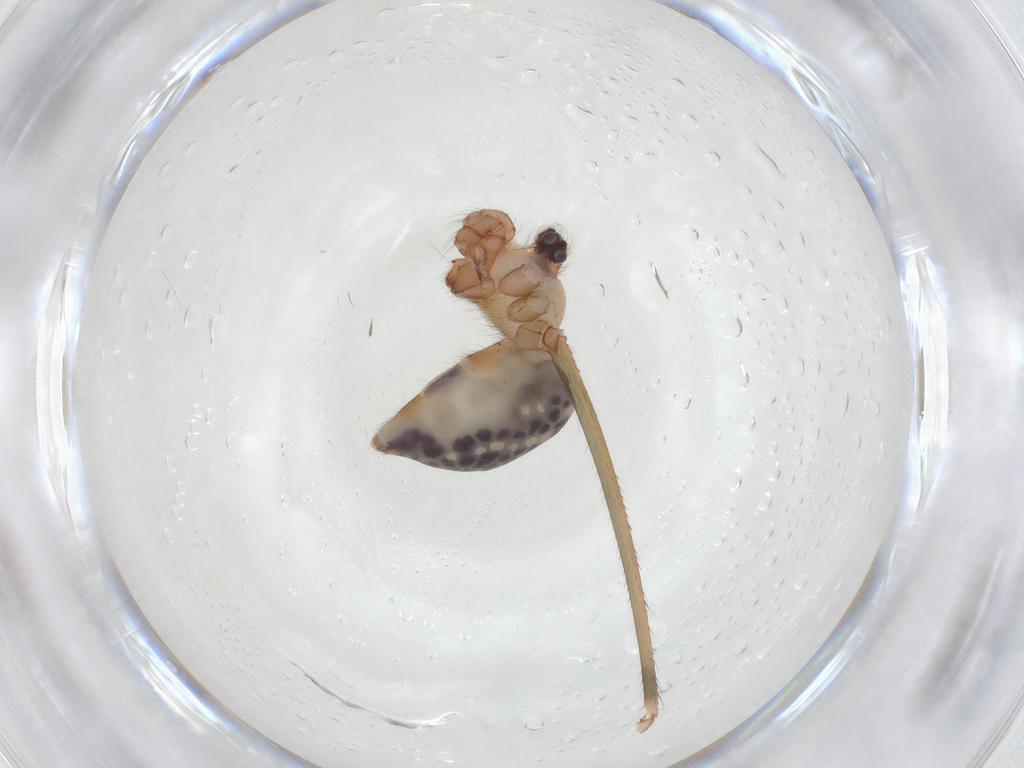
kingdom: Animalia
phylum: Arthropoda
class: Arachnida
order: Araneae
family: Pholcidae
